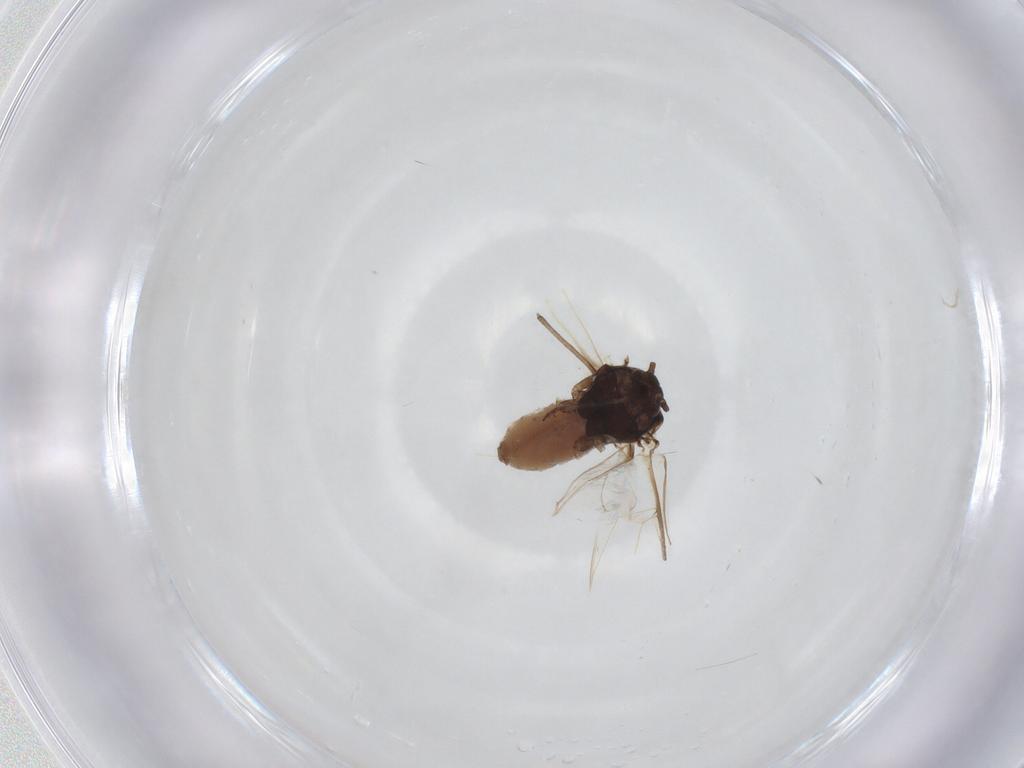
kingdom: Animalia
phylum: Arthropoda
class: Insecta
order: Hemiptera
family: Aphididae
